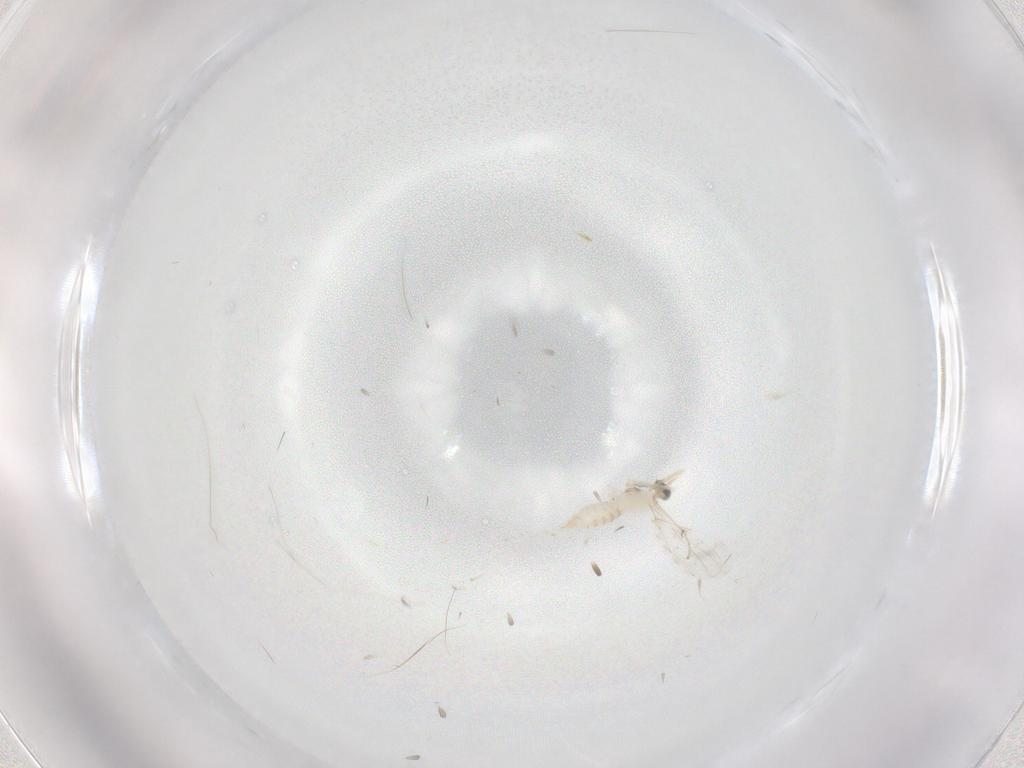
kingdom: Animalia
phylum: Arthropoda
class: Insecta
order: Diptera
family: Cecidomyiidae
